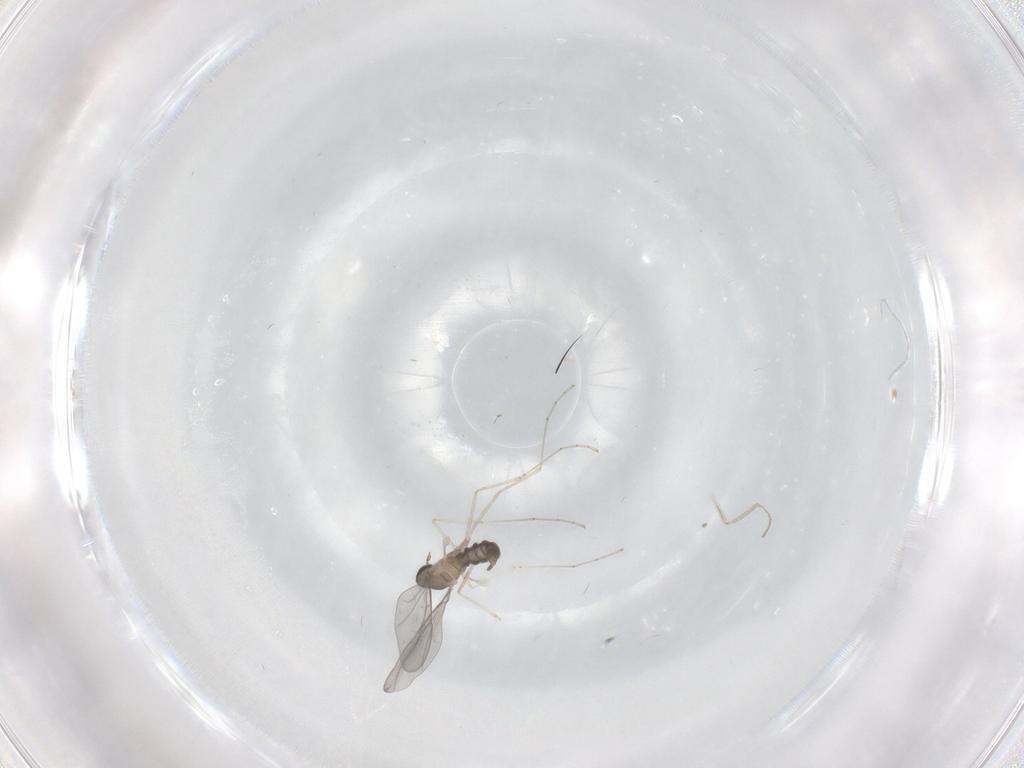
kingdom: Animalia
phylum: Arthropoda
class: Insecta
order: Diptera
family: Cecidomyiidae
